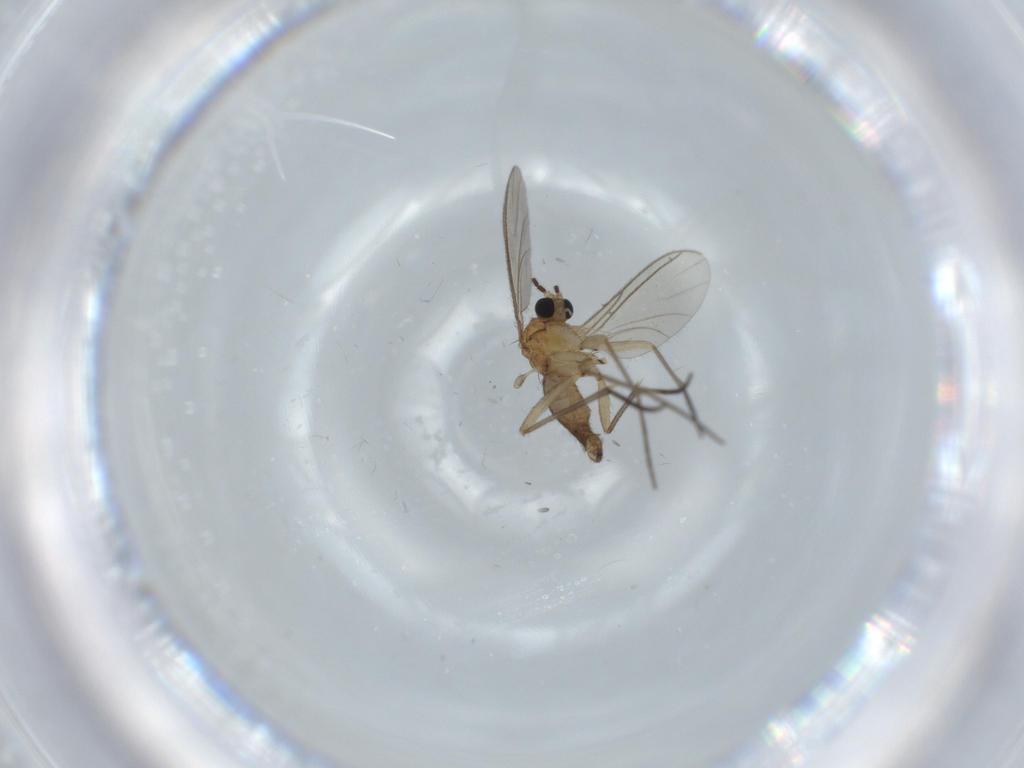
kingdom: Animalia
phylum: Arthropoda
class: Insecta
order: Diptera
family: Phoridae
